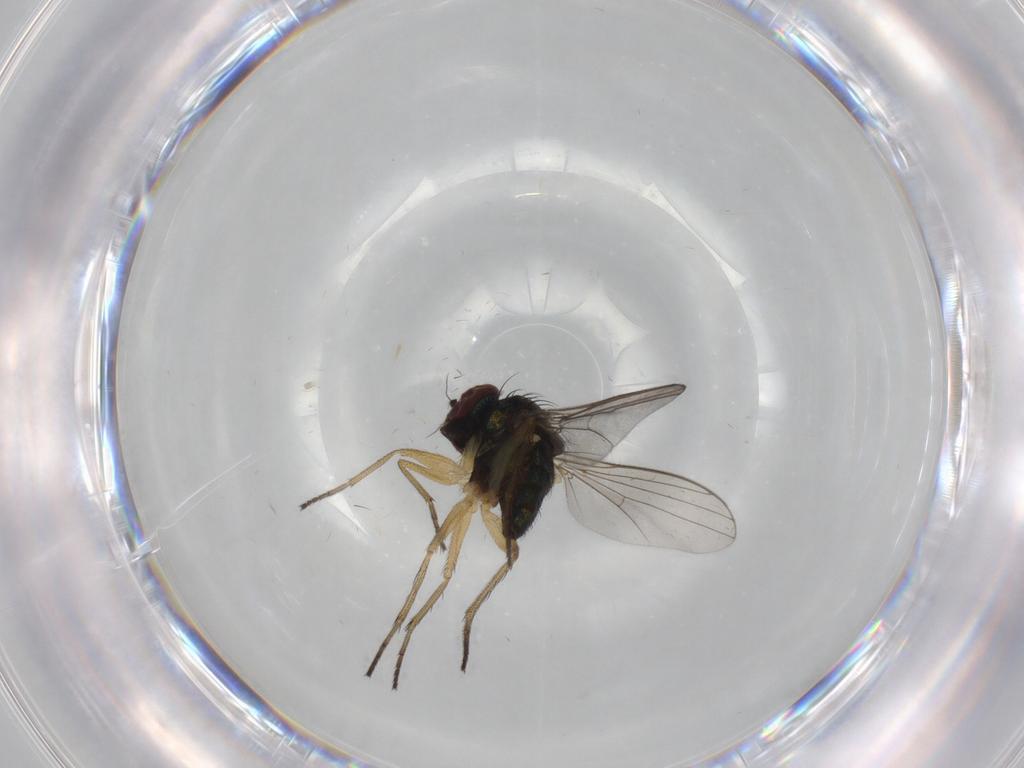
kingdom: Animalia
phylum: Arthropoda
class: Insecta
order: Diptera
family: Dolichopodidae
